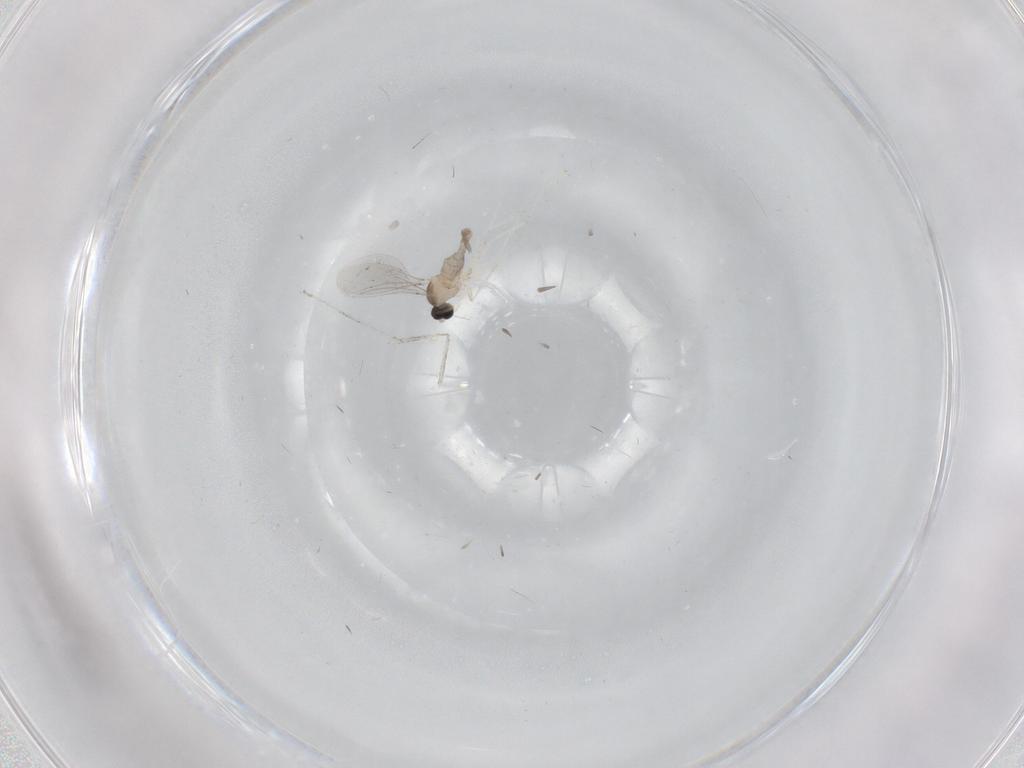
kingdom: Animalia
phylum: Arthropoda
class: Insecta
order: Diptera
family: Cecidomyiidae
